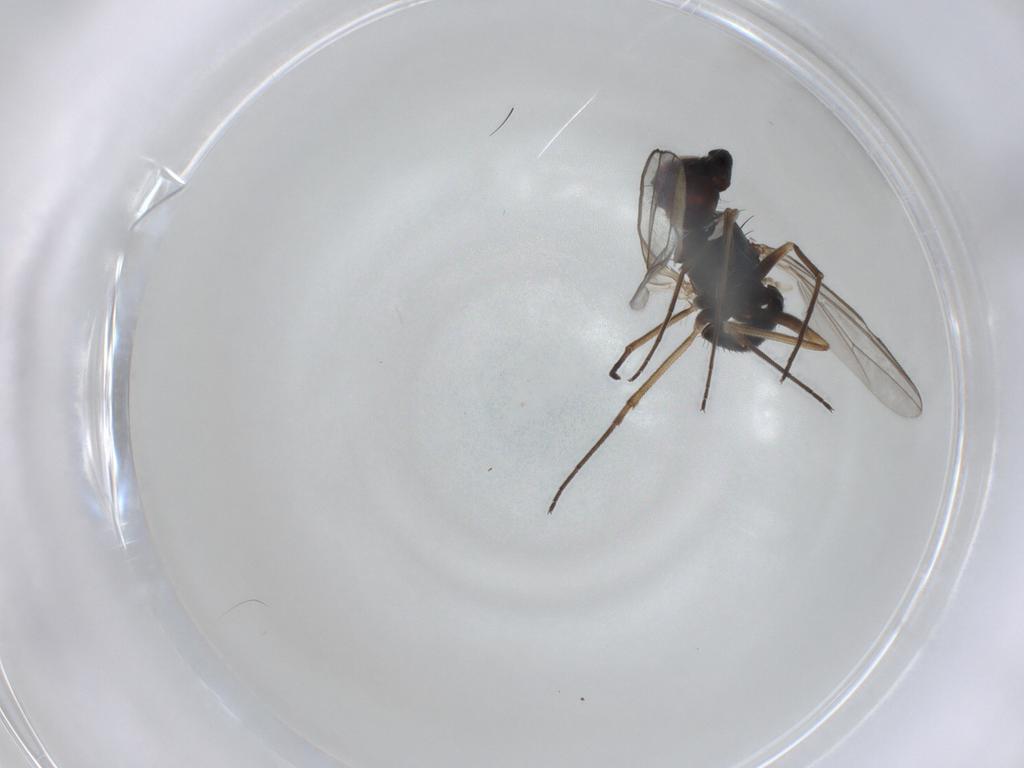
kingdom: Animalia
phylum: Arthropoda
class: Insecta
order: Diptera
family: Dolichopodidae
